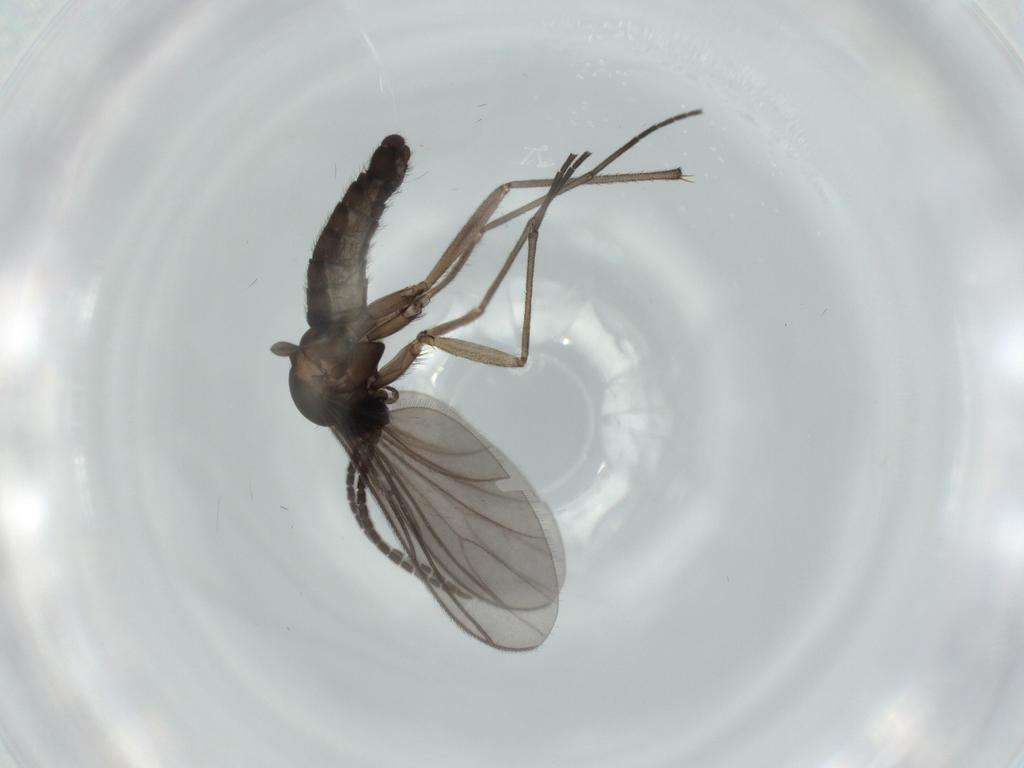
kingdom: Animalia
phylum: Arthropoda
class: Insecta
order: Diptera
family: Sciaridae
